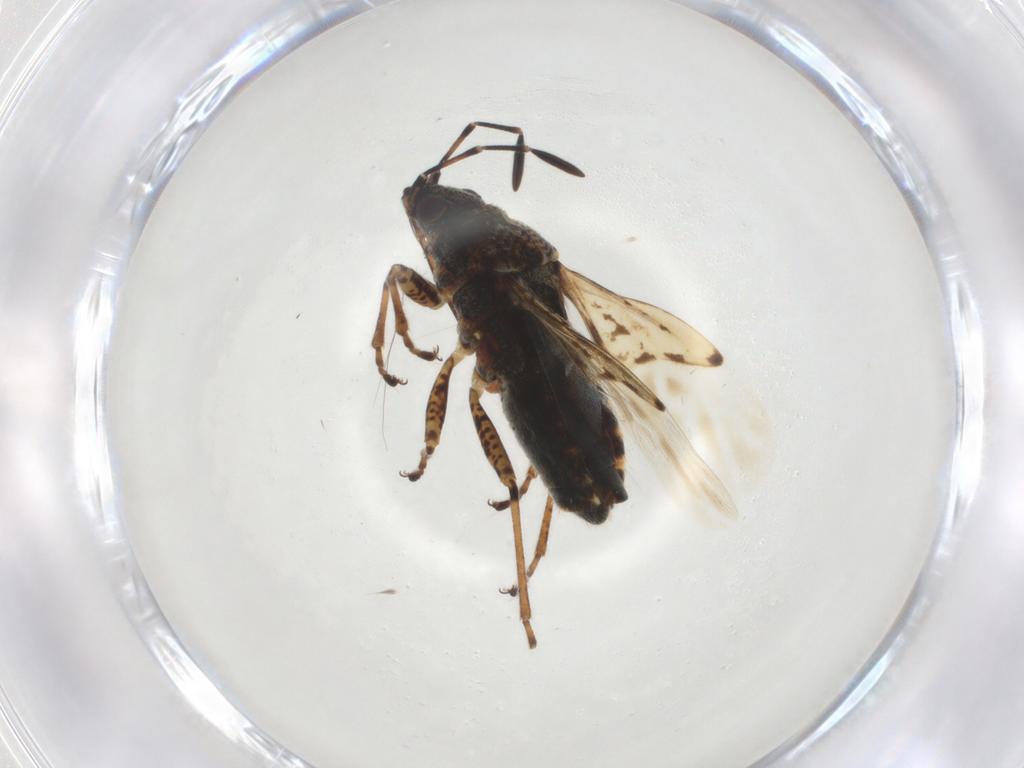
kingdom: Animalia
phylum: Arthropoda
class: Insecta
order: Hemiptera
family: Lygaeidae
